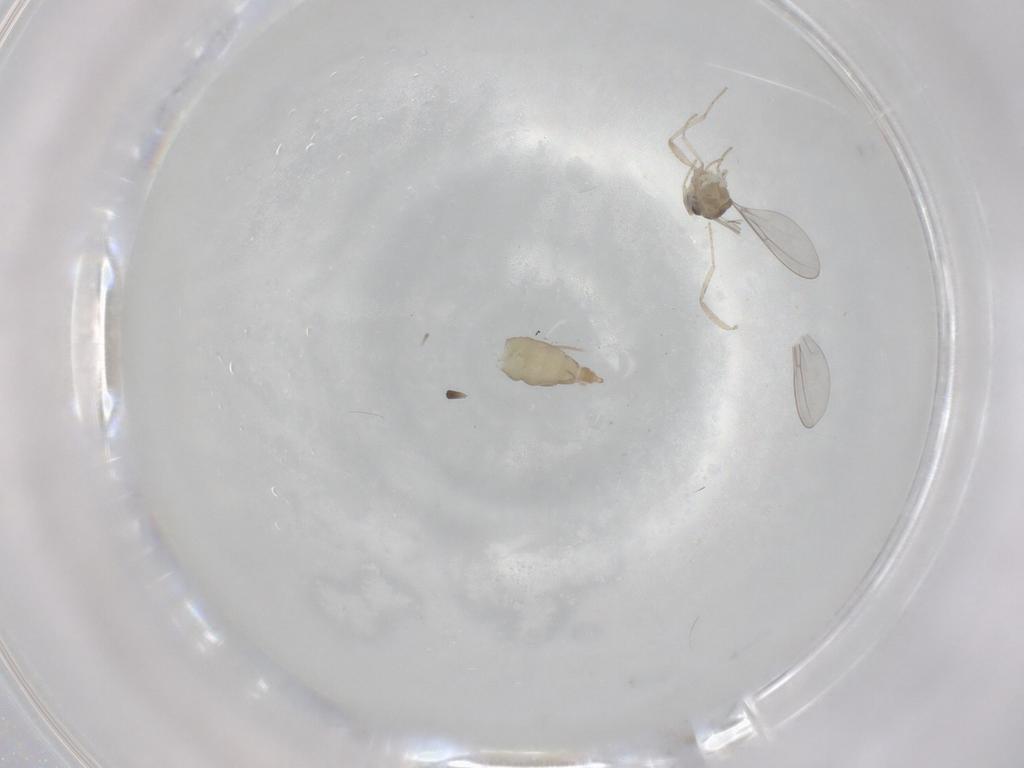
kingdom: Animalia
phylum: Arthropoda
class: Insecta
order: Diptera
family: Cecidomyiidae
